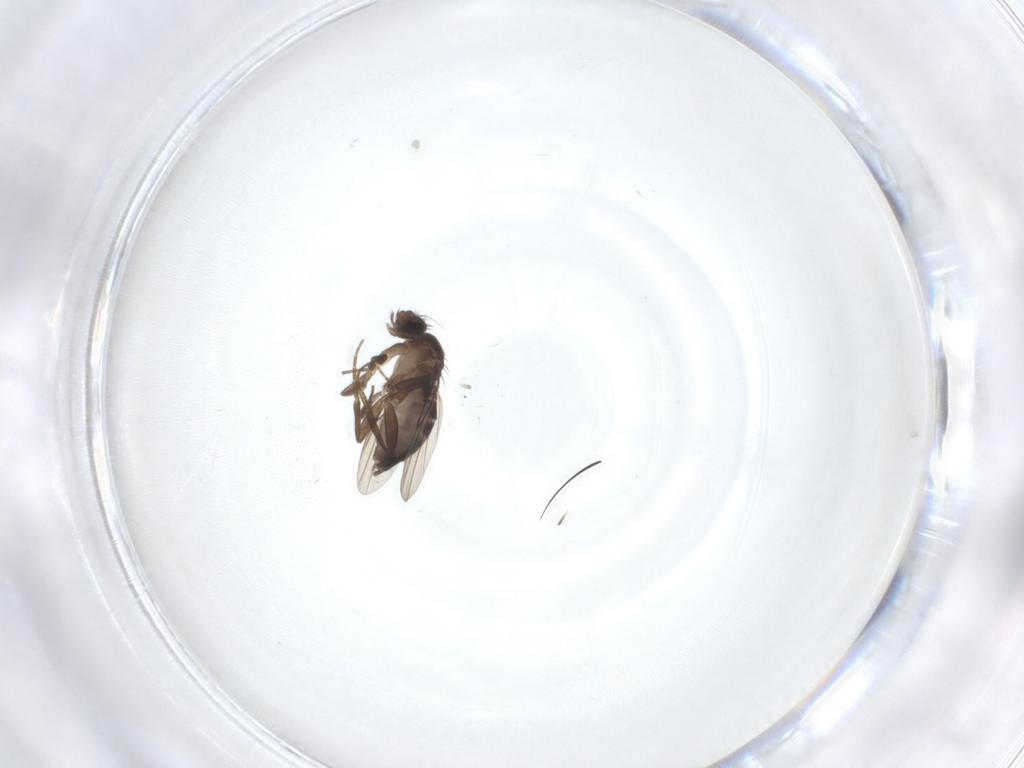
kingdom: Animalia
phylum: Arthropoda
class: Insecta
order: Diptera
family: Phoridae
